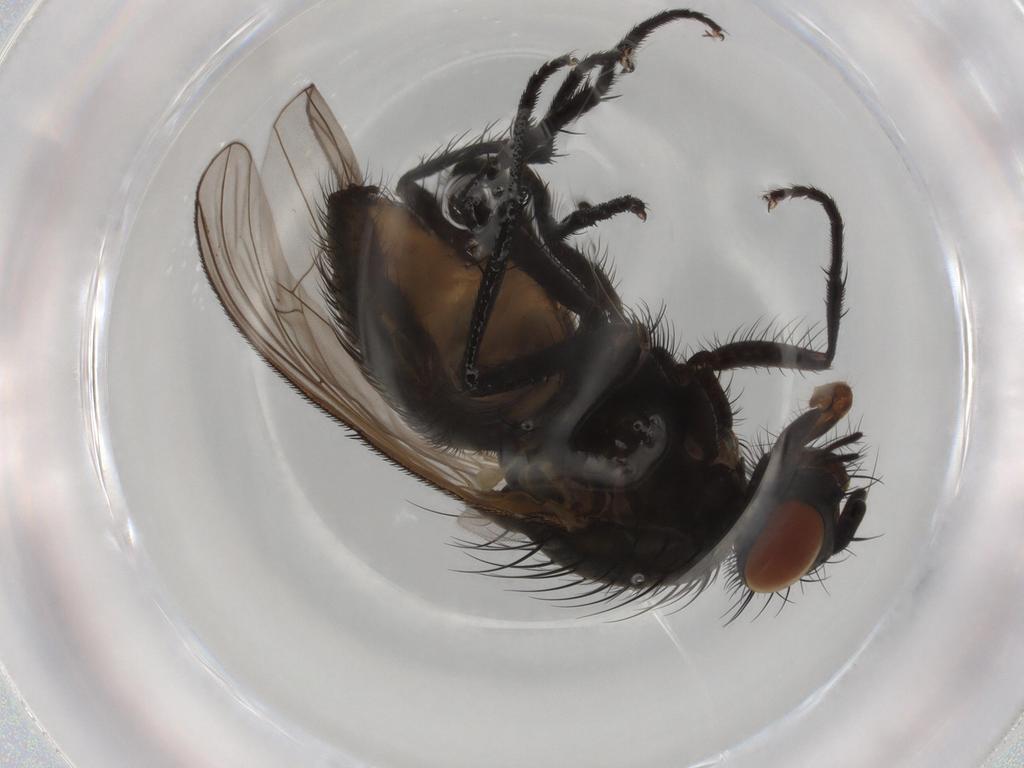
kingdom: Animalia
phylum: Arthropoda
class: Insecta
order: Diptera
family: Anthomyiidae
